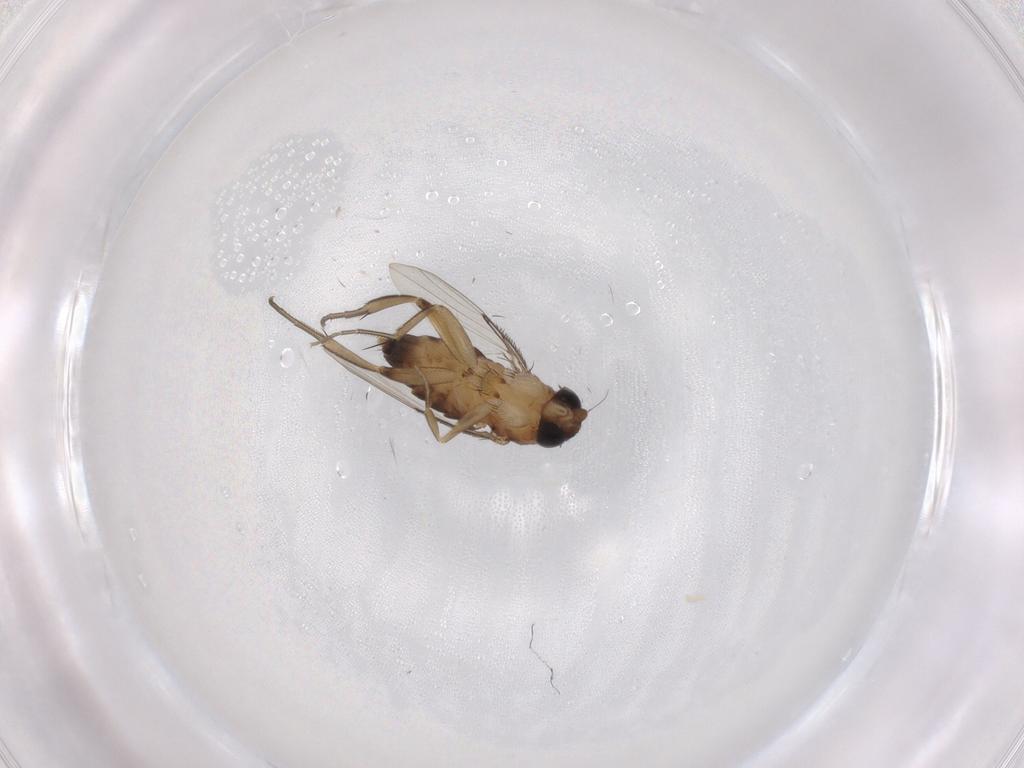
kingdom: Animalia
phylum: Arthropoda
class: Insecta
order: Diptera
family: Phoridae
